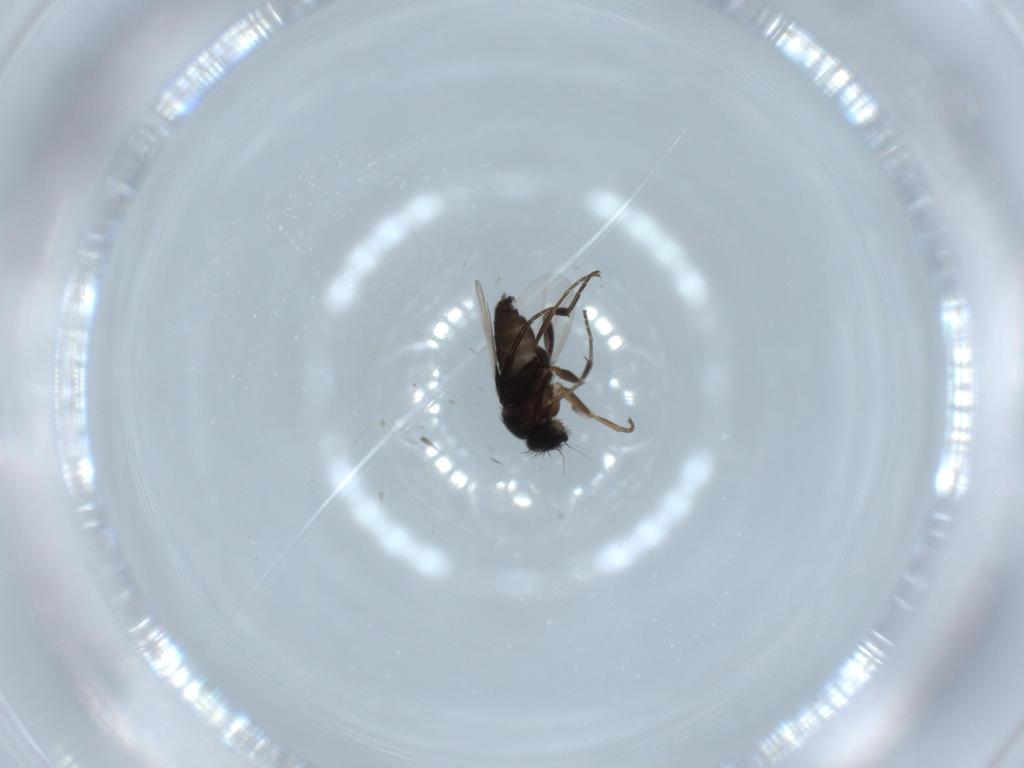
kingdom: Animalia
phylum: Arthropoda
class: Insecta
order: Diptera
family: Phoridae
